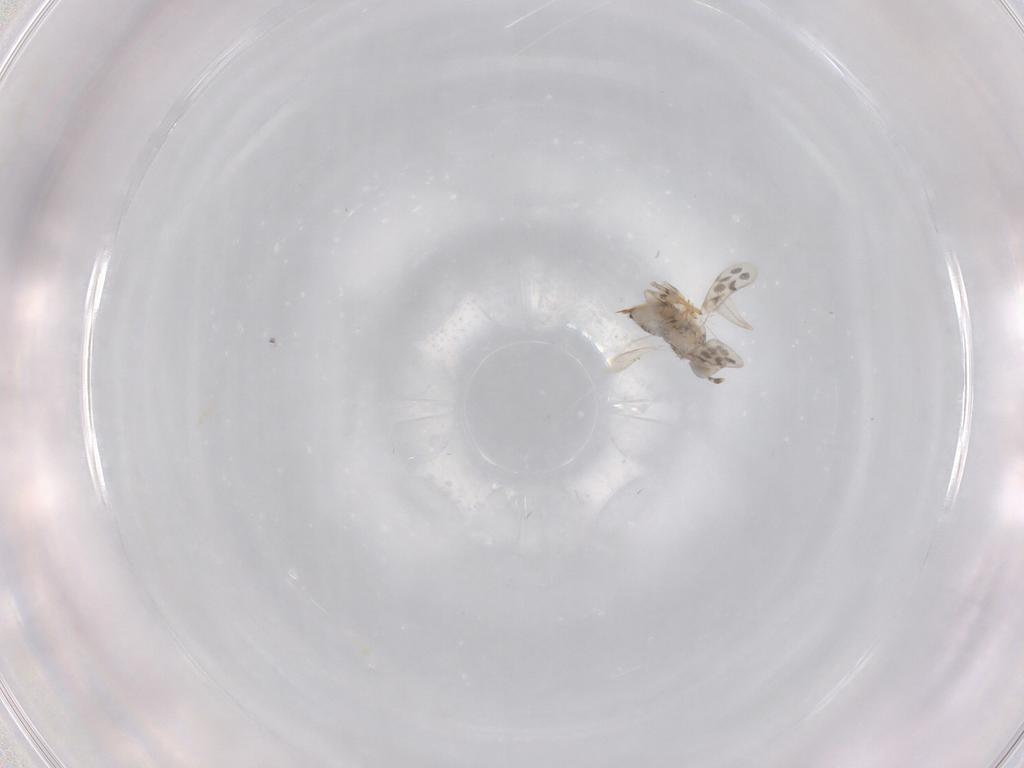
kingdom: Animalia
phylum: Arthropoda
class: Insecta
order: Hymenoptera
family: Aphelinidae
